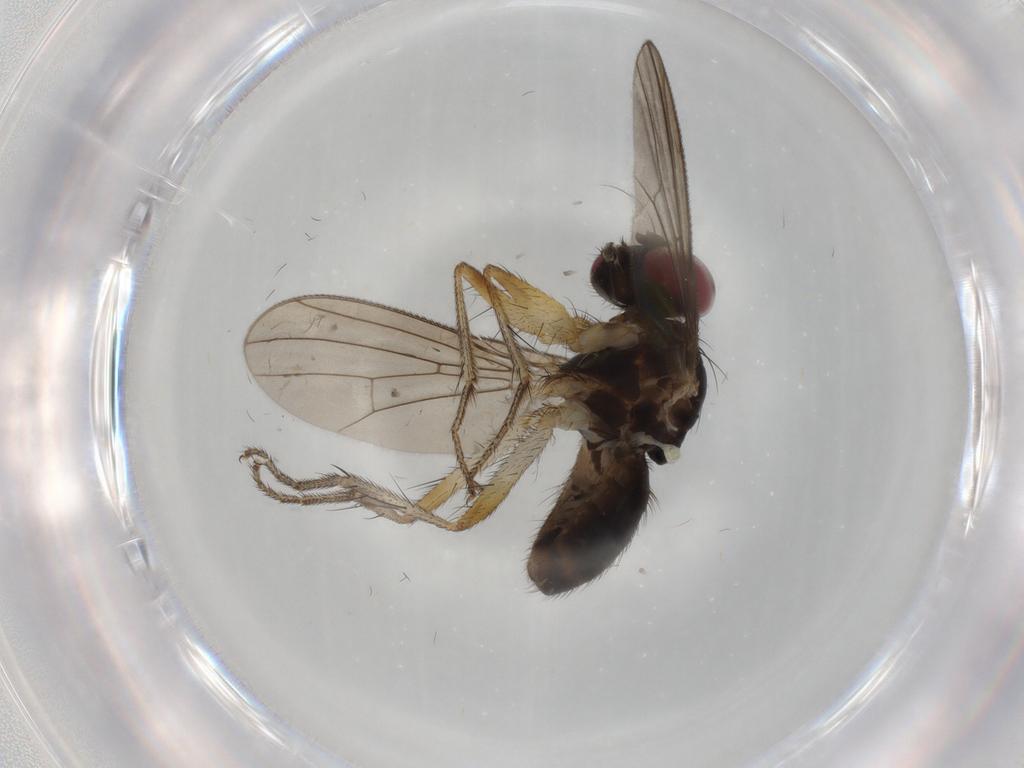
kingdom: Animalia
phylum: Arthropoda
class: Insecta
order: Diptera
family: Anthomyiidae
